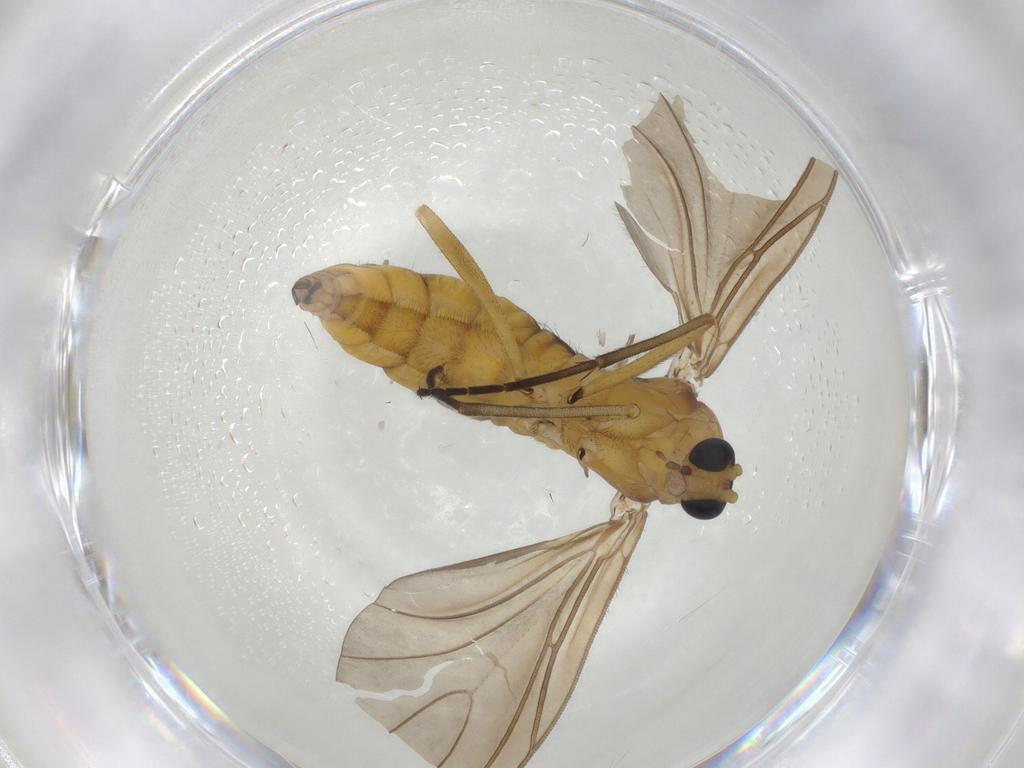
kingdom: Animalia
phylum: Arthropoda
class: Insecta
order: Diptera
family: Sciaridae
